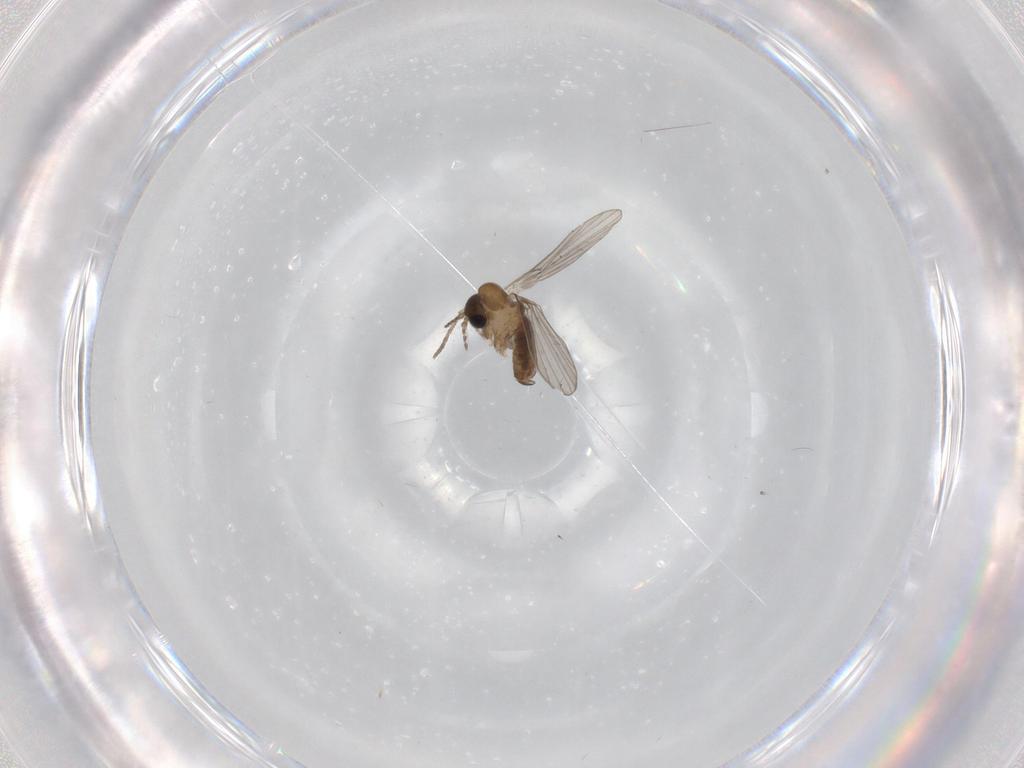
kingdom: Animalia
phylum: Arthropoda
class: Insecta
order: Diptera
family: Psychodidae
